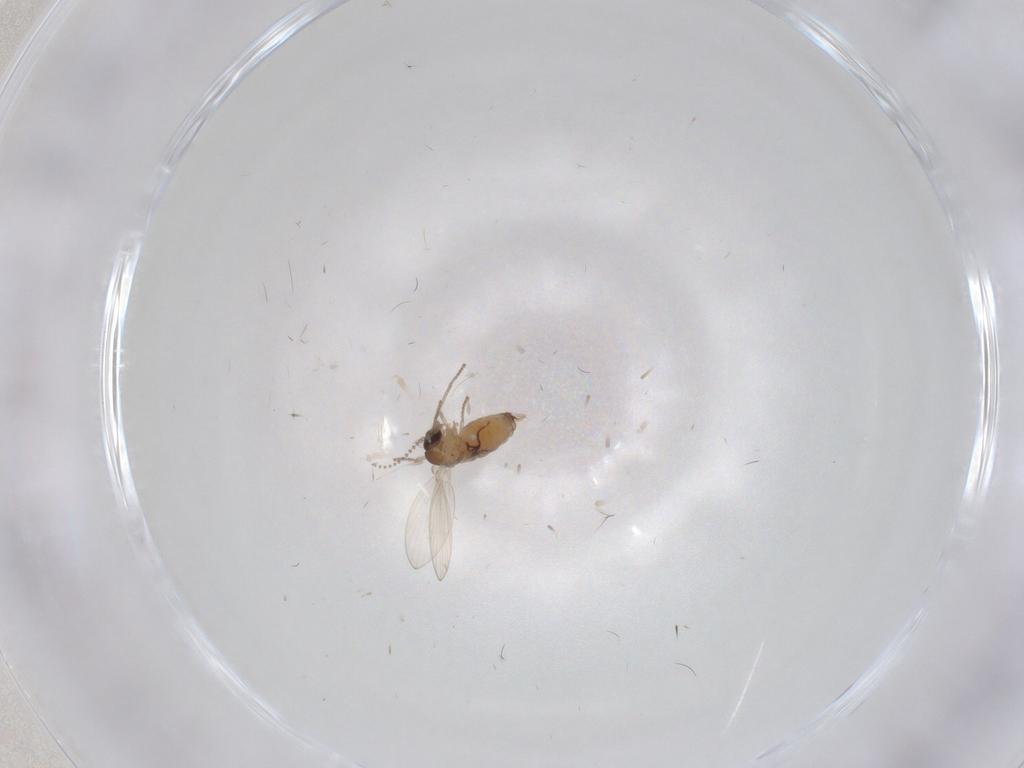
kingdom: Animalia
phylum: Arthropoda
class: Insecta
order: Diptera
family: Psychodidae
